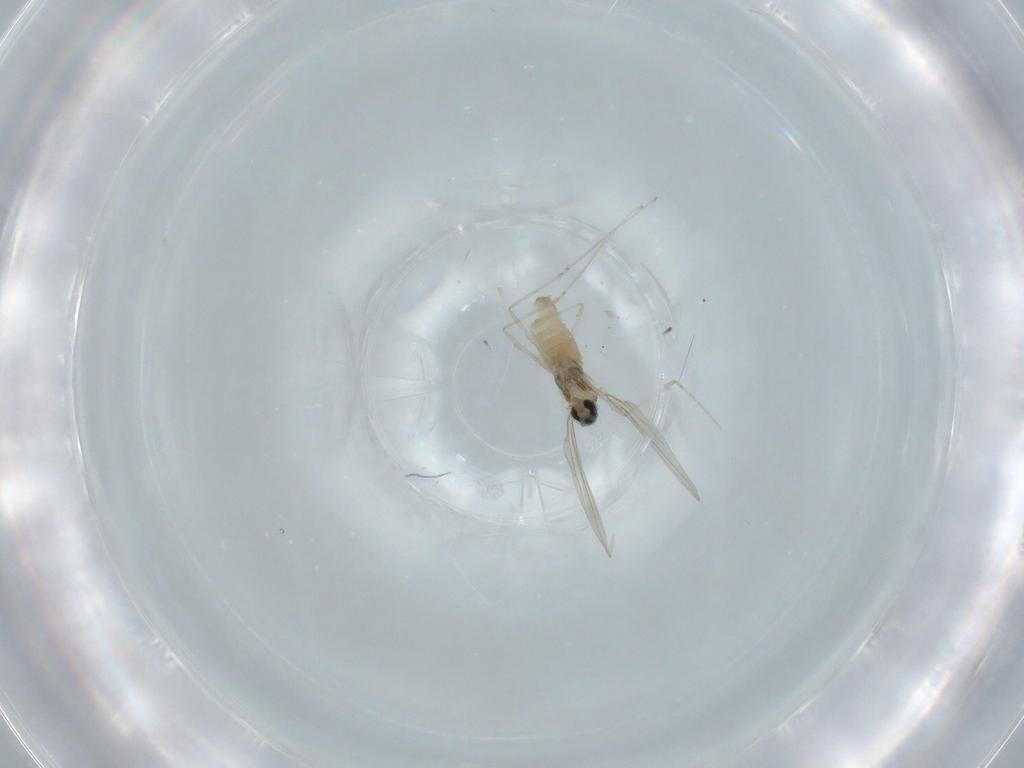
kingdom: Animalia
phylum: Arthropoda
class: Insecta
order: Diptera
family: Cecidomyiidae
